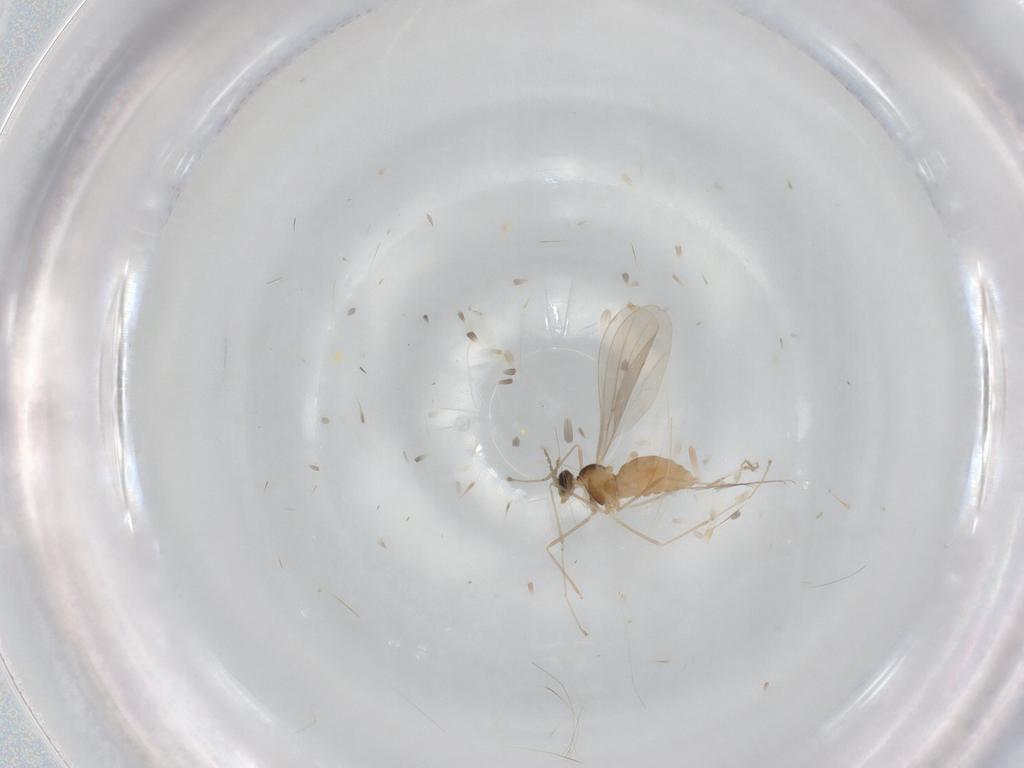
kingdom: Animalia
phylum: Arthropoda
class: Insecta
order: Diptera
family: Cecidomyiidae
